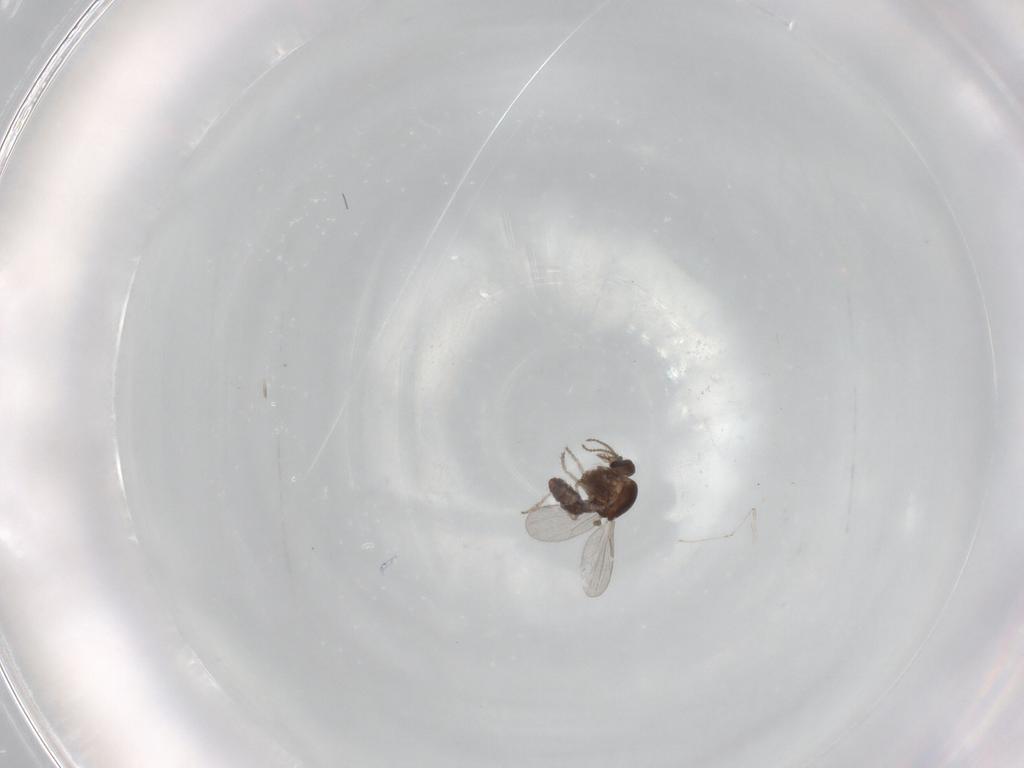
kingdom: Animalia
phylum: Arthropoda
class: Insecta
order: Diptera
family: Ceratopogonidae
